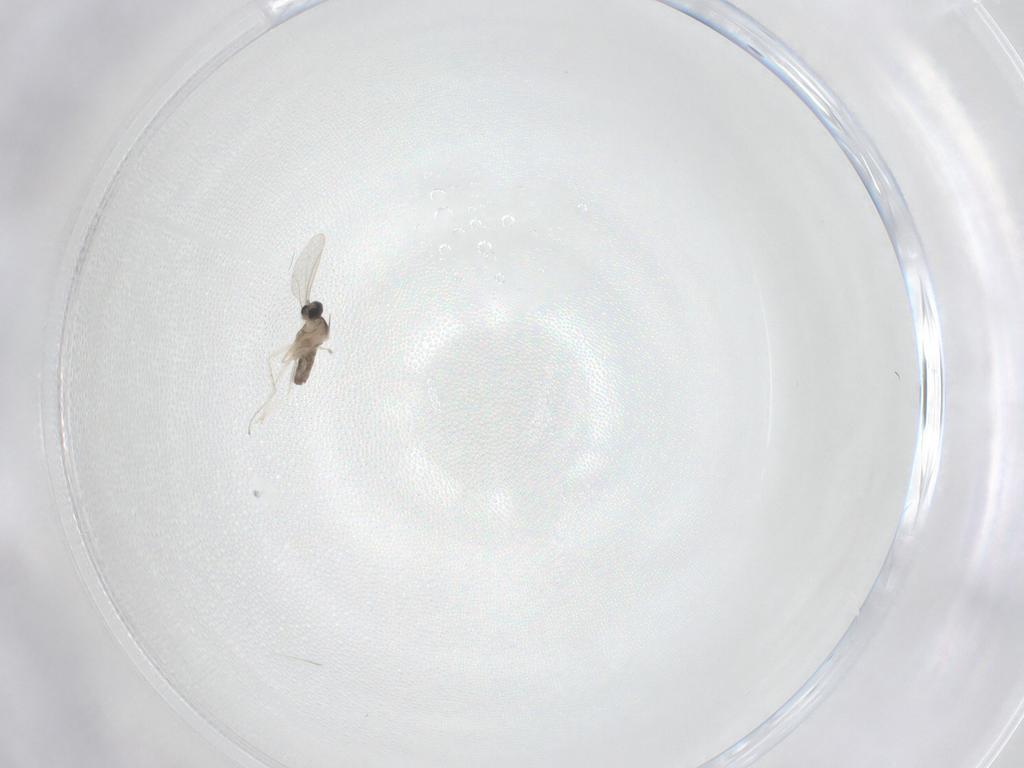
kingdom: Animalia
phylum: Arthropoda
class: Insecta
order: Diptera
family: Cecidomyiidae
